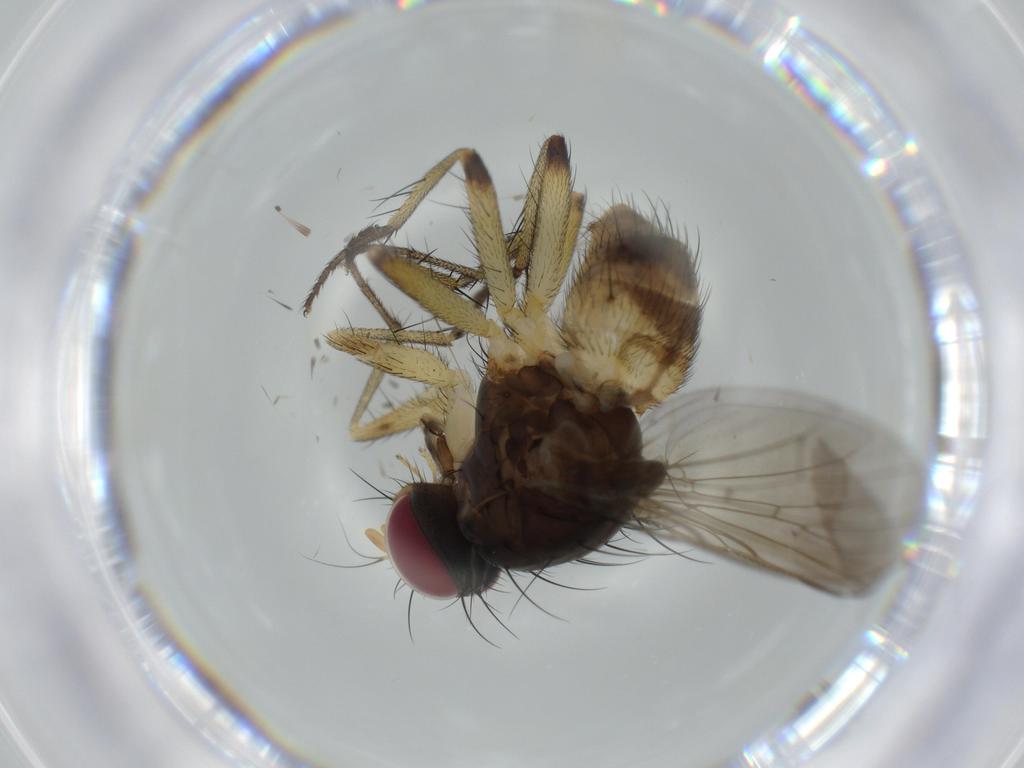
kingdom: Animalia
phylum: Arthropoda
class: Insecta
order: Diptera
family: Muscidae
